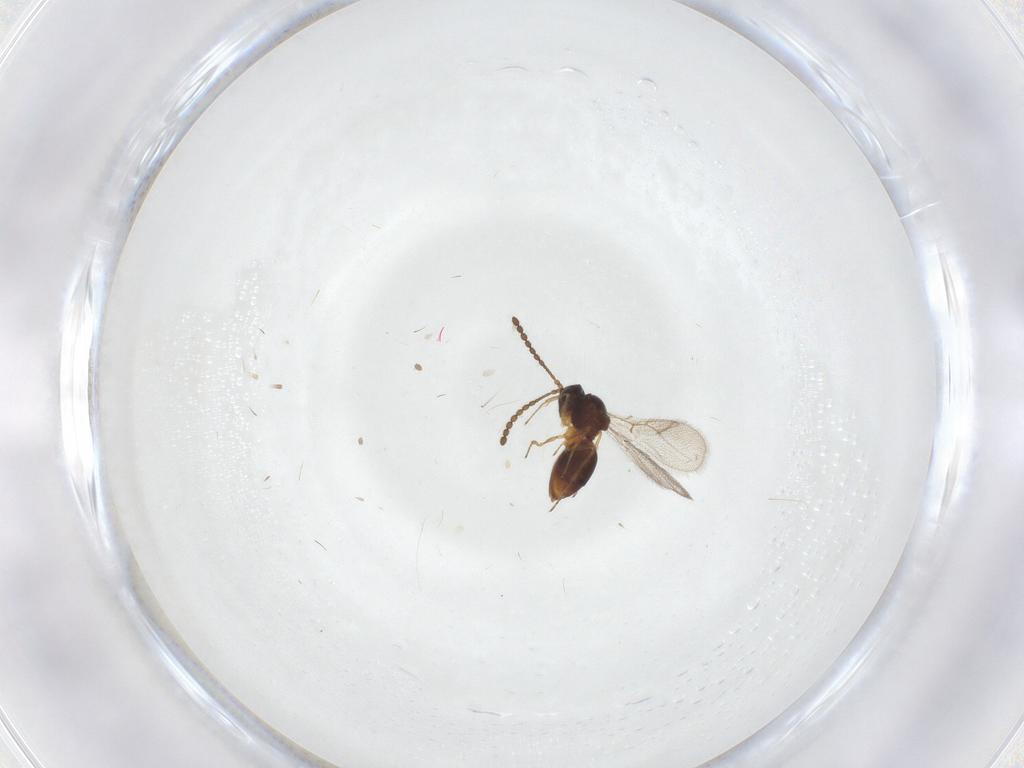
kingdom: Animalia
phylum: Arthropoda
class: Insecta
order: Hymenoptera
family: Figitidae
